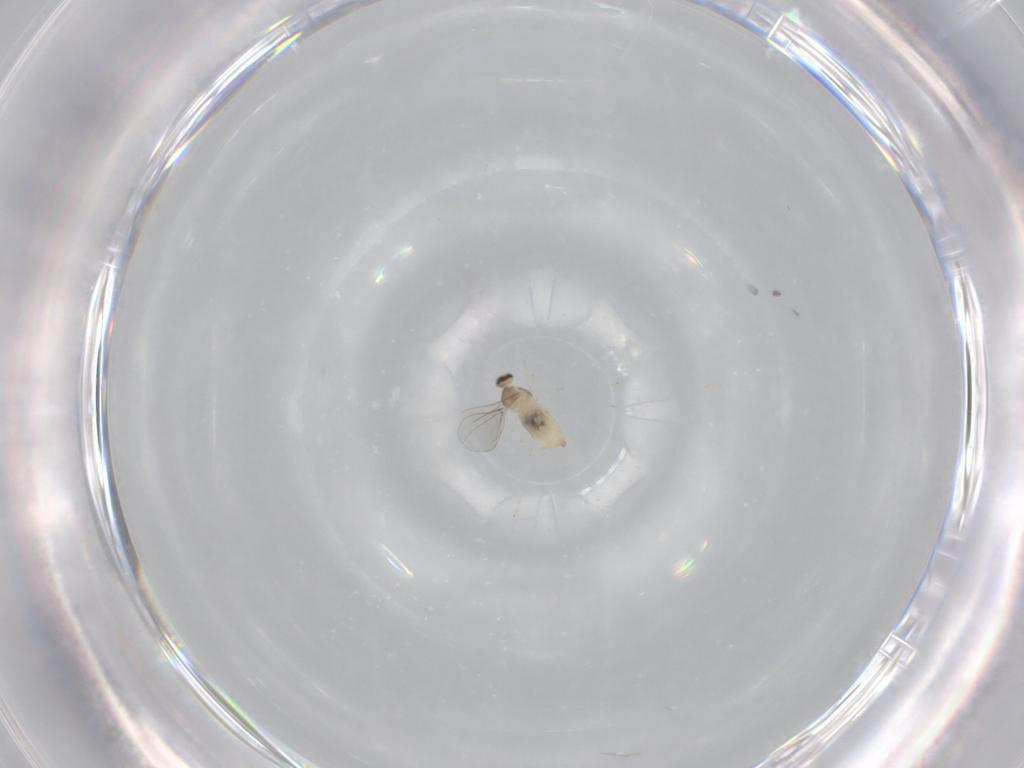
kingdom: Animalia
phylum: Arthropoda
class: Insecta
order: Diptera
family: Cecidomyiidae
